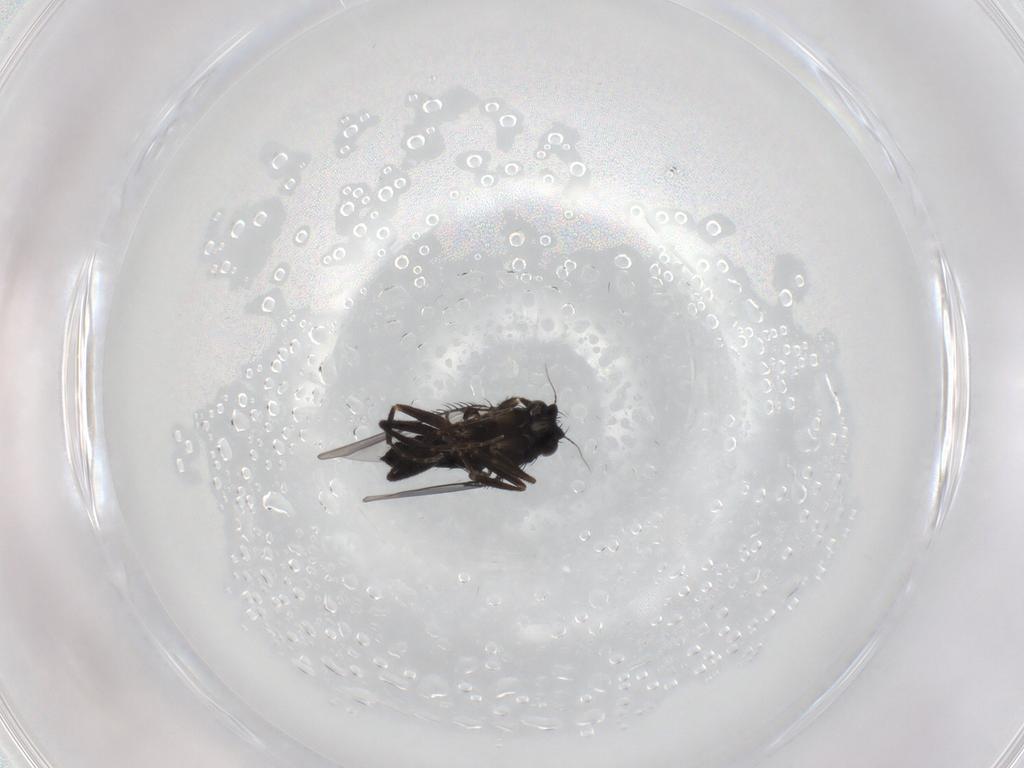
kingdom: Animalia
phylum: Arthropoda
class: Insecta
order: Diptera
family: Phoridae
